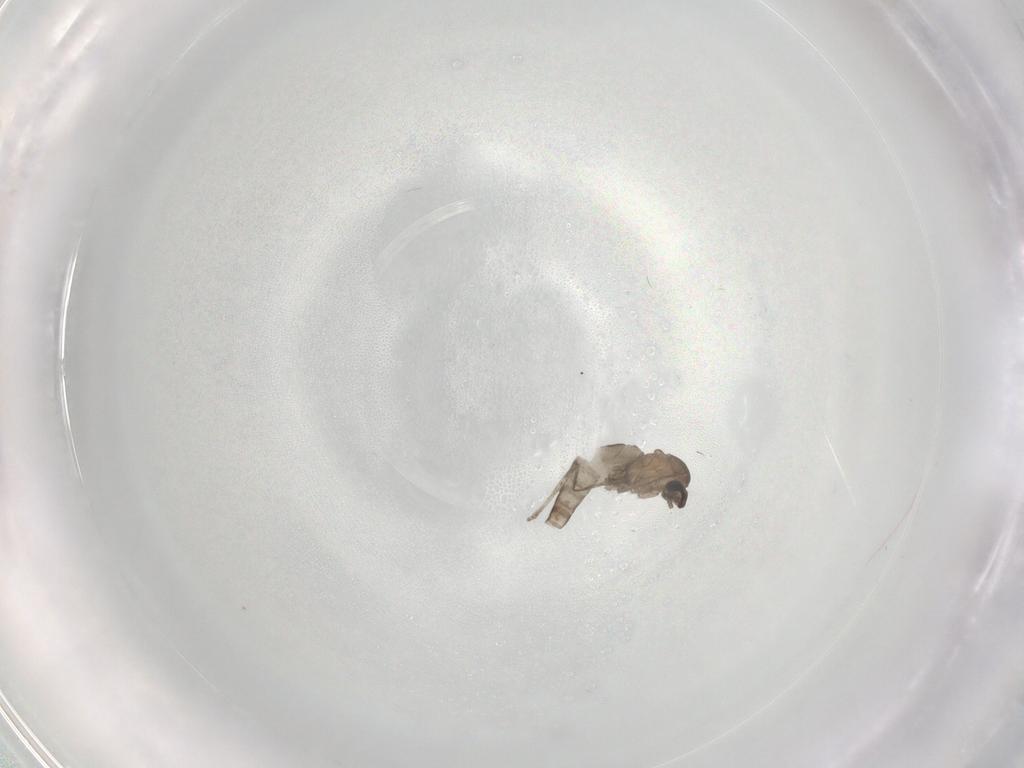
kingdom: Animalia
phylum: Arthropoda
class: Insecta
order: Diptera
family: Cecidomyiidae
